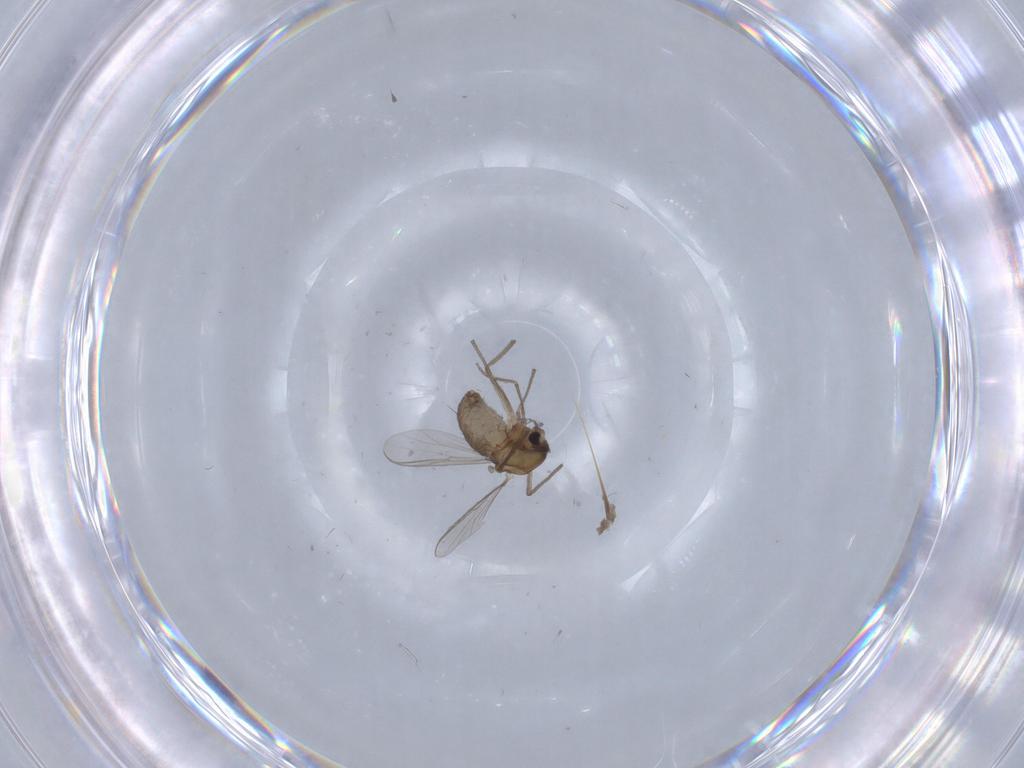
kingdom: Animalia
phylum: Arthropoda
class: Insecta
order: Diptera
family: Chironomidae
